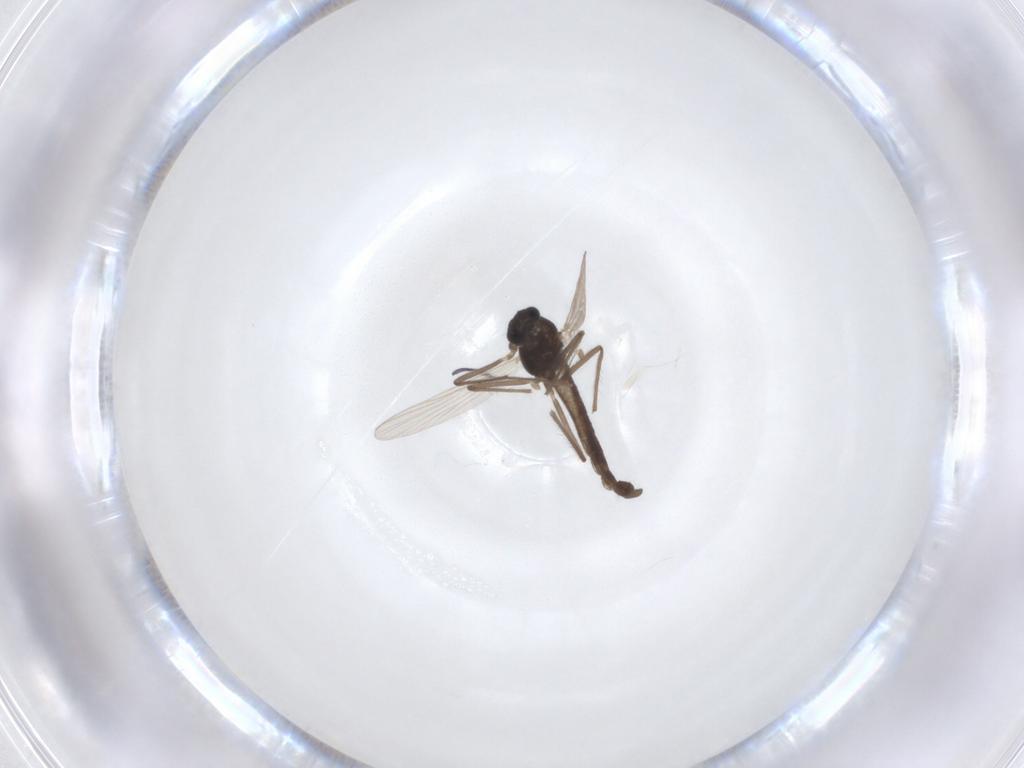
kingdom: Animalia
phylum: Arthropoda
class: Insecta
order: Diptera
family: Chironomidae
